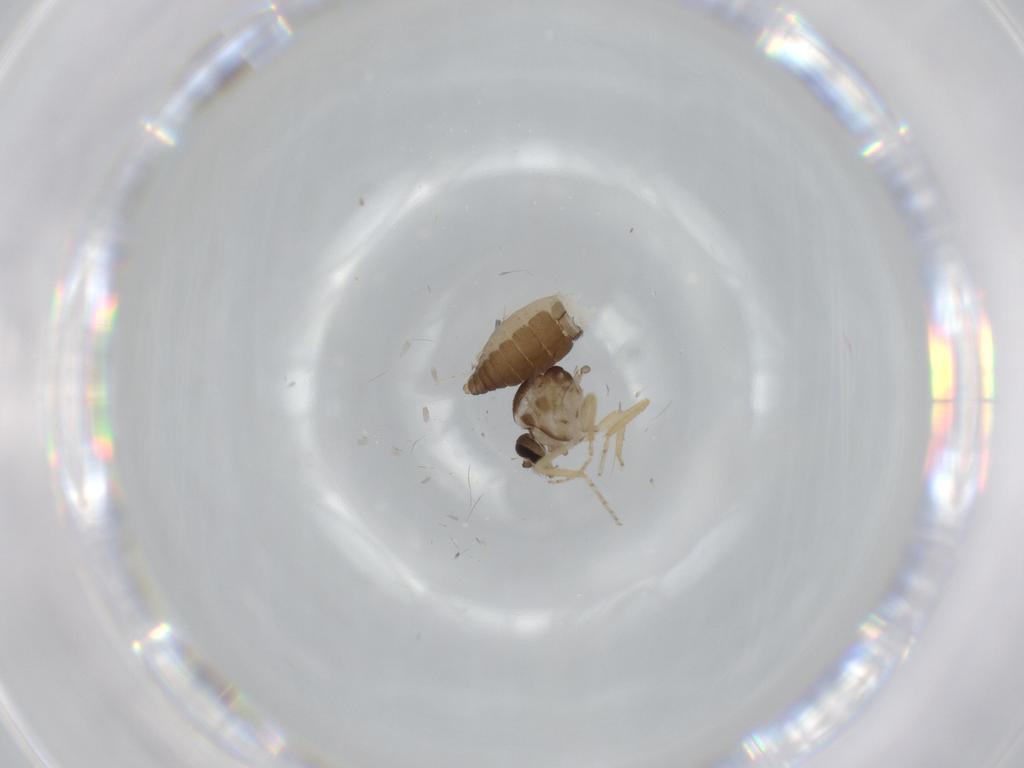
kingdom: Animalia
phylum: Arthropoda
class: Insecta
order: Diptera
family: Milichiidae
